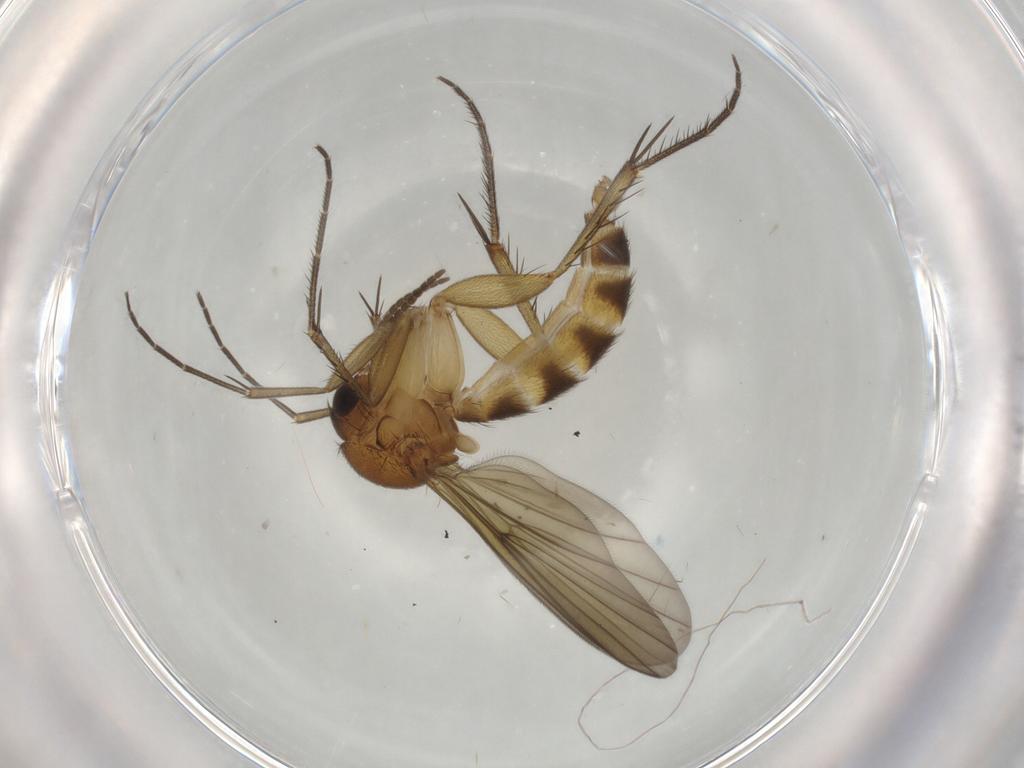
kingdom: Animalia
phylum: Arthropoda
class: Insecta
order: Diptera
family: Mycetophilidae
